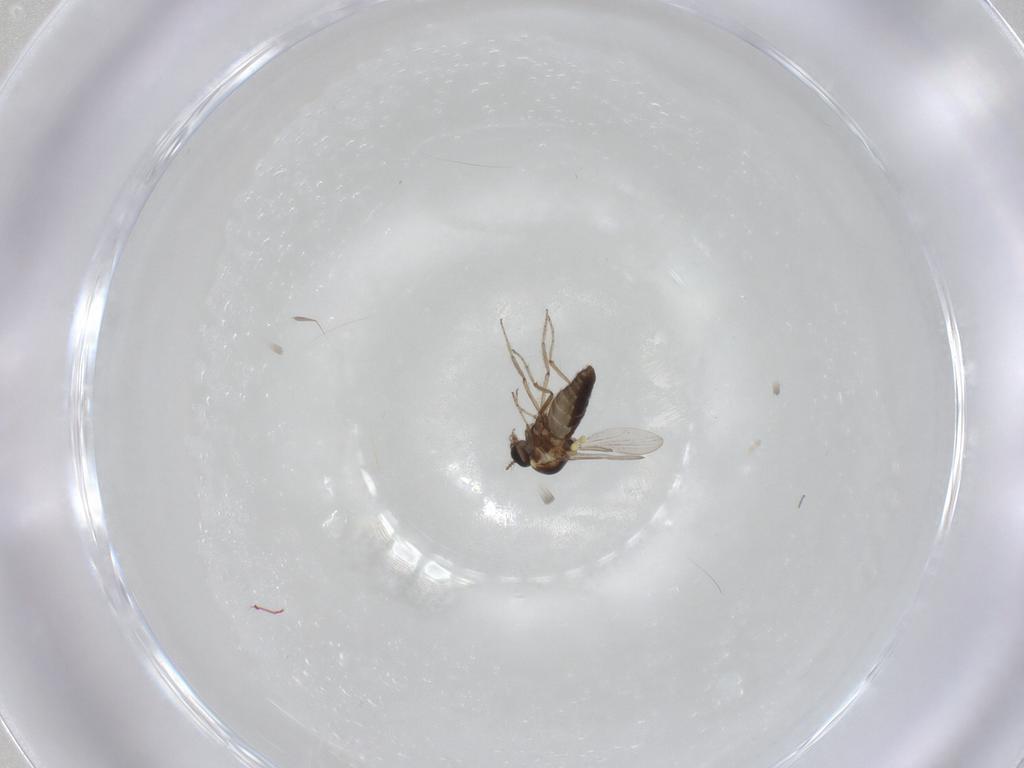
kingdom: Animalia
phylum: Arthropoda
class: Insecta
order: Diptera
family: Ceratopogonidae
